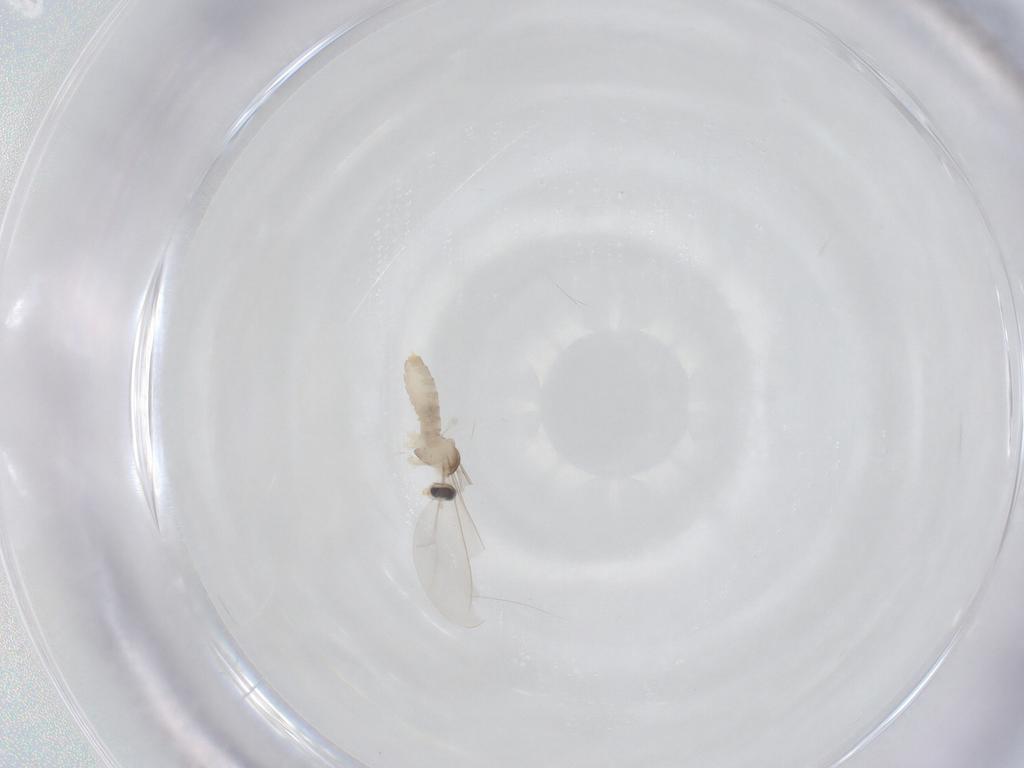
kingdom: Animalia
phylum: Arthropoda
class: Insecta
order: Diptera
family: Cecidomyiidae
